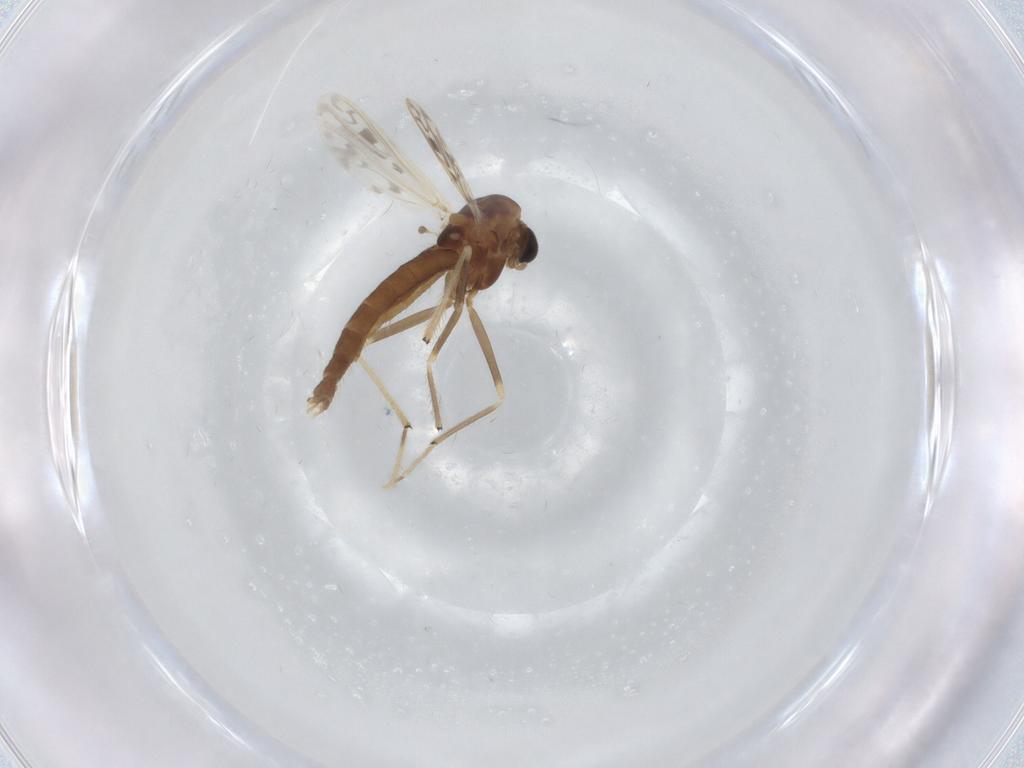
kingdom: Animalia
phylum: Arthropoda
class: Insecta
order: Diptera
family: Chironomidae
